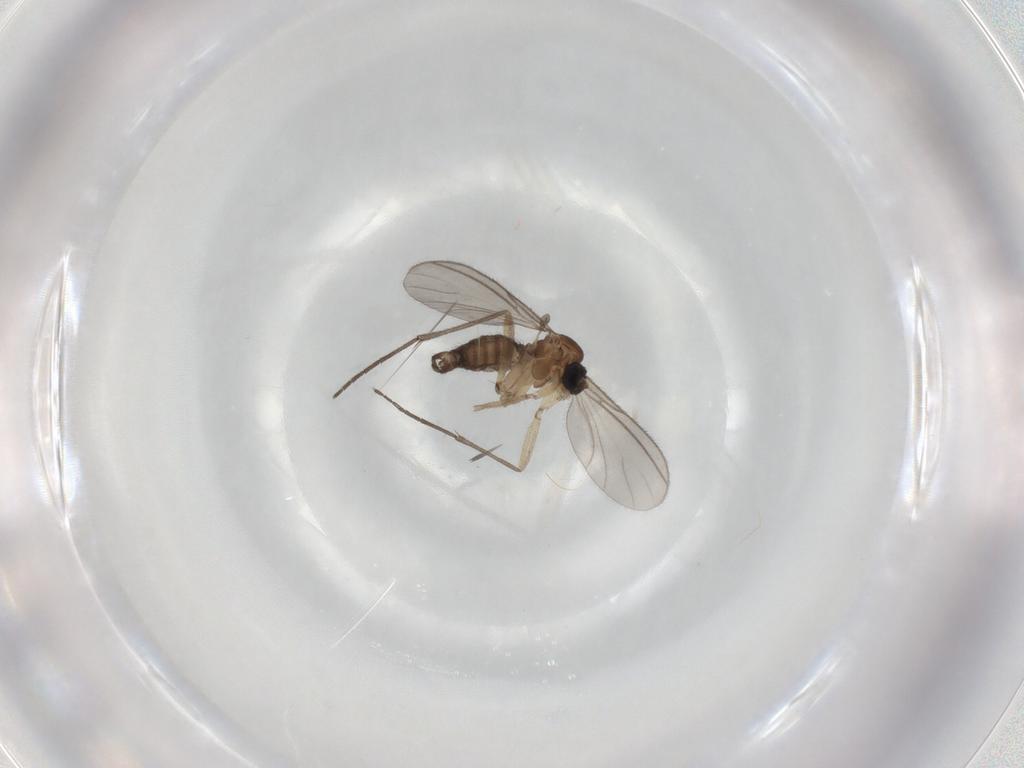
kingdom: Animalia
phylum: Arthropoda
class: Insecta
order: Diptera
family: Sciaridae
